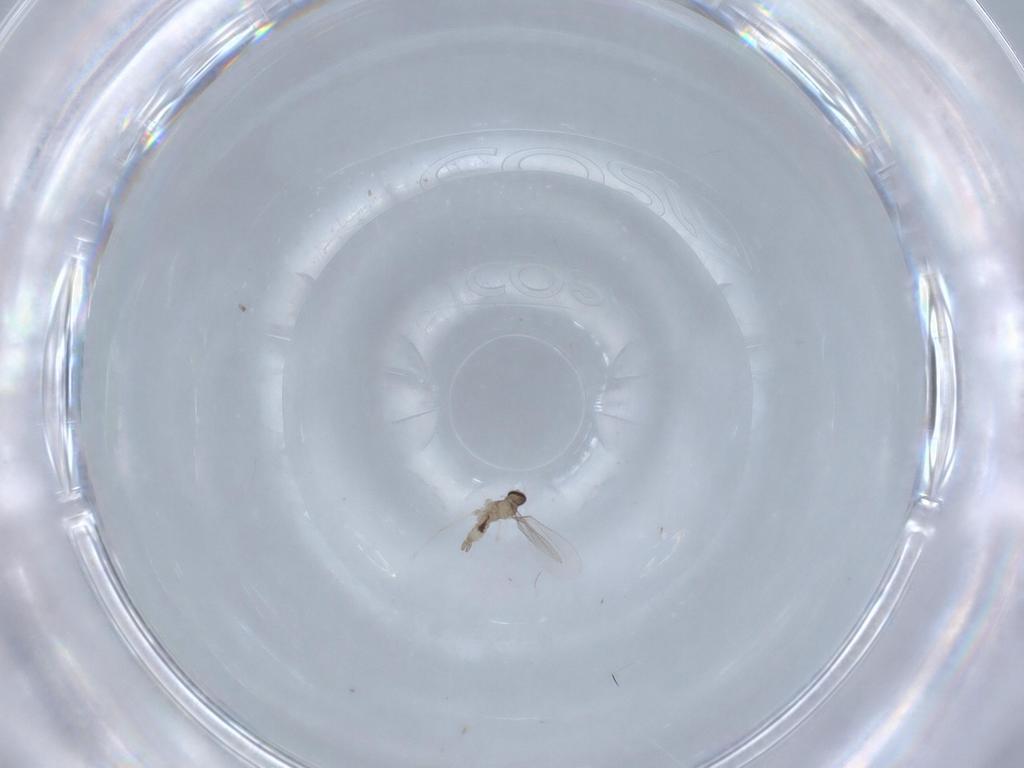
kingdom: Animalia
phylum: Arthropoda
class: Insecta
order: Diptera
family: Cecidomyiidae
